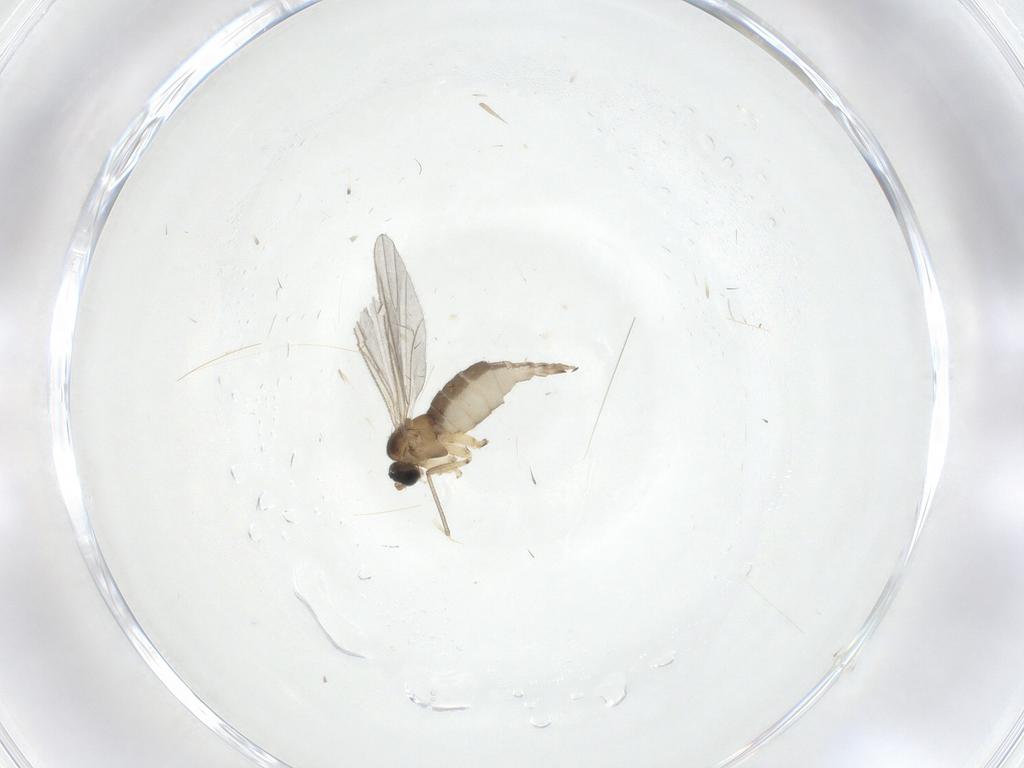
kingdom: Animalia
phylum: Arthropoda
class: Insecta
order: Diptera
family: Sciaridae
